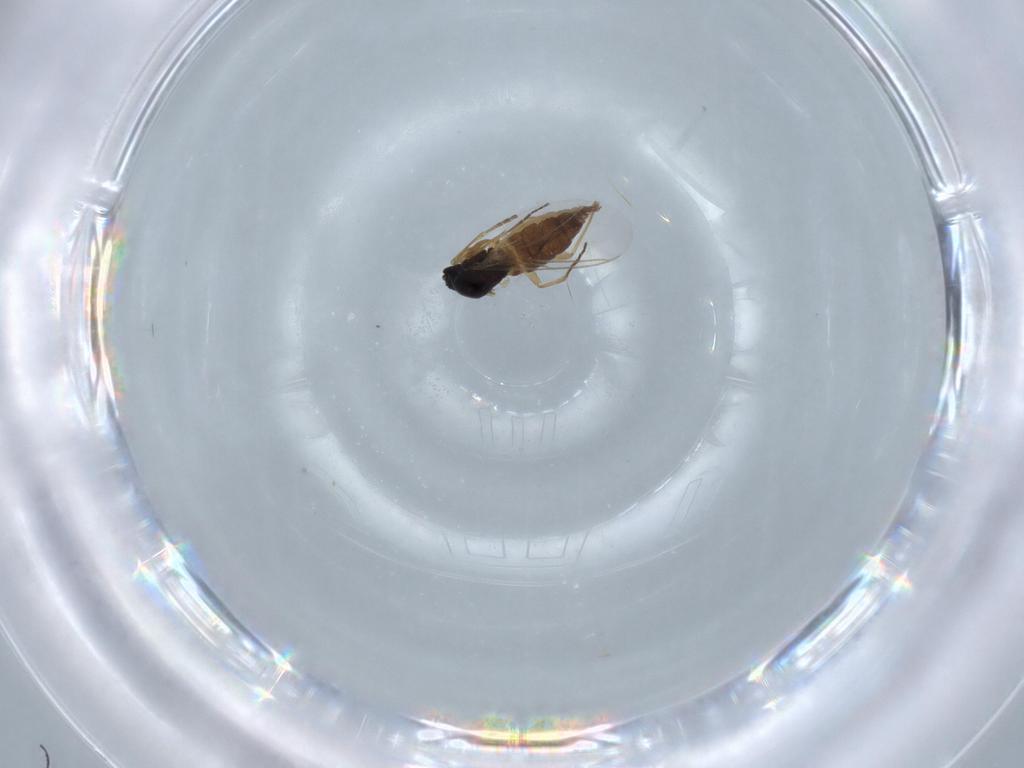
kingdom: Animalia
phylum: Arthropoda
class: Insecta
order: Diptera
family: Sciaridae
